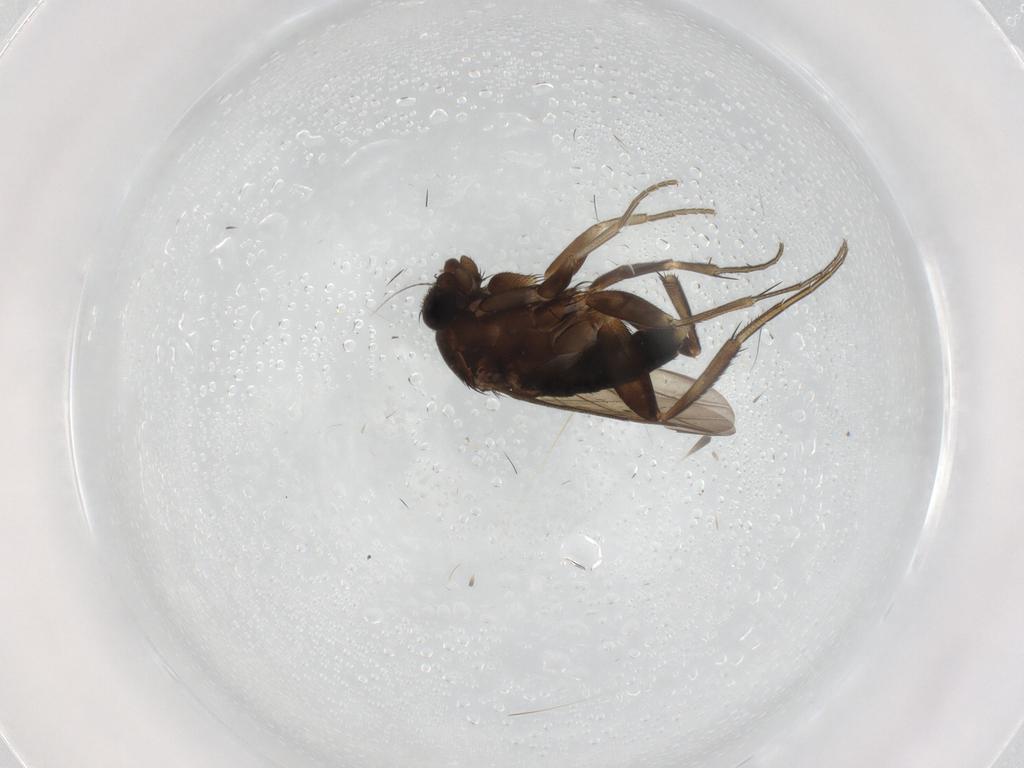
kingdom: Animalia
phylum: Arthropoda
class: Insecta
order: Diptera
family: Phoridae
